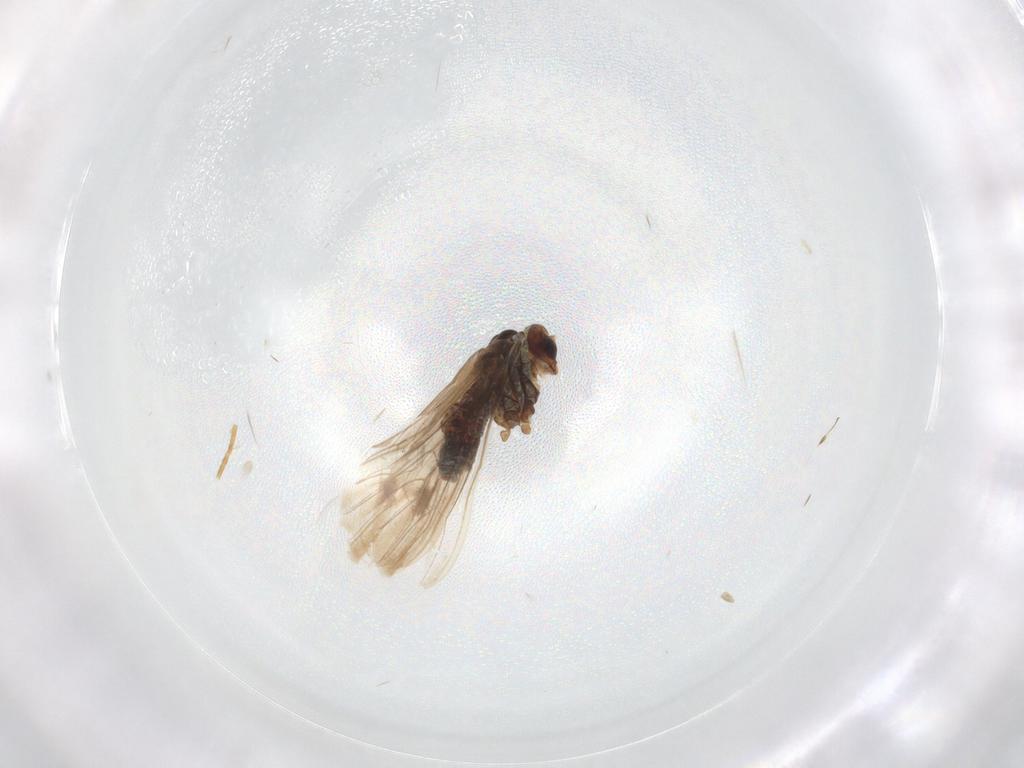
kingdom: Animalia
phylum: Arthropoda
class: Insecta
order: Neuroptera
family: Coniopterygidae
